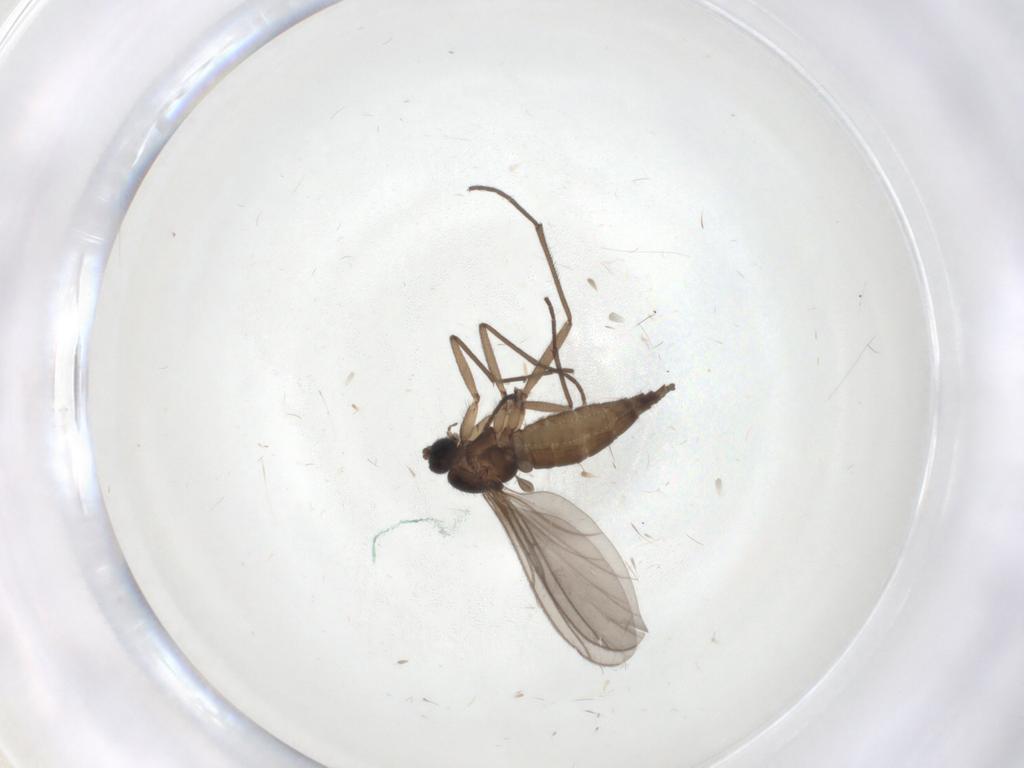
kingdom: Animalia
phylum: Arthropoda
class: Insecta
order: Diptera
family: Sciaridae
